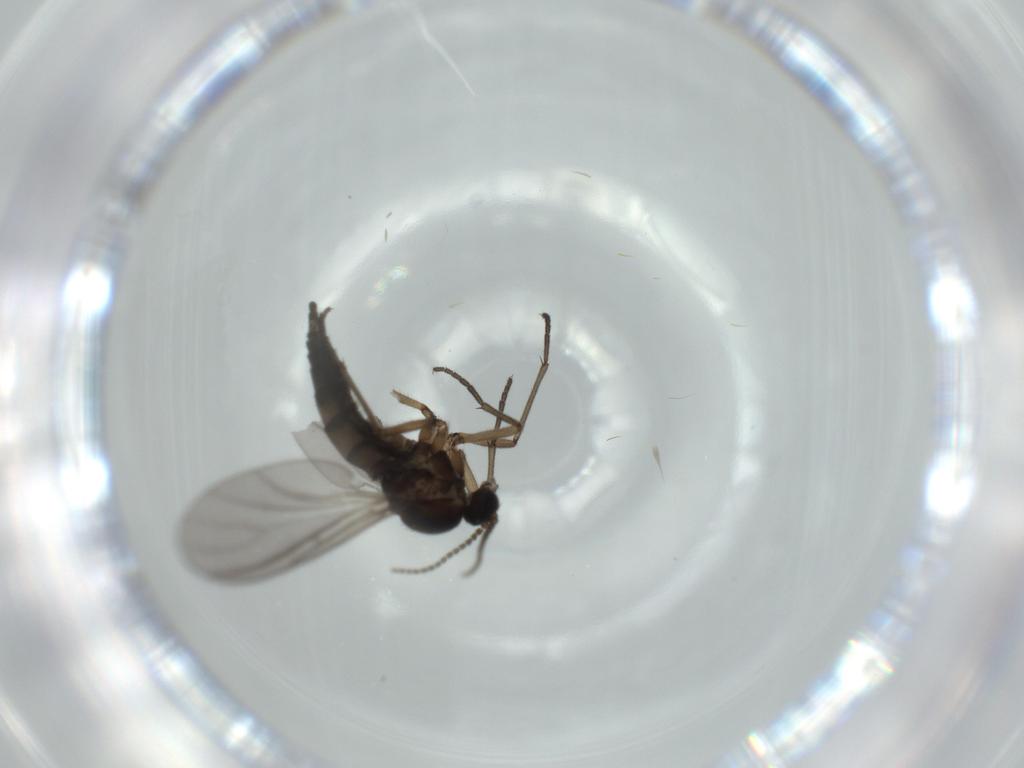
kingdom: Animalia
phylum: Arthropoda
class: Insecta
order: Diptera
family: Sciaridae
